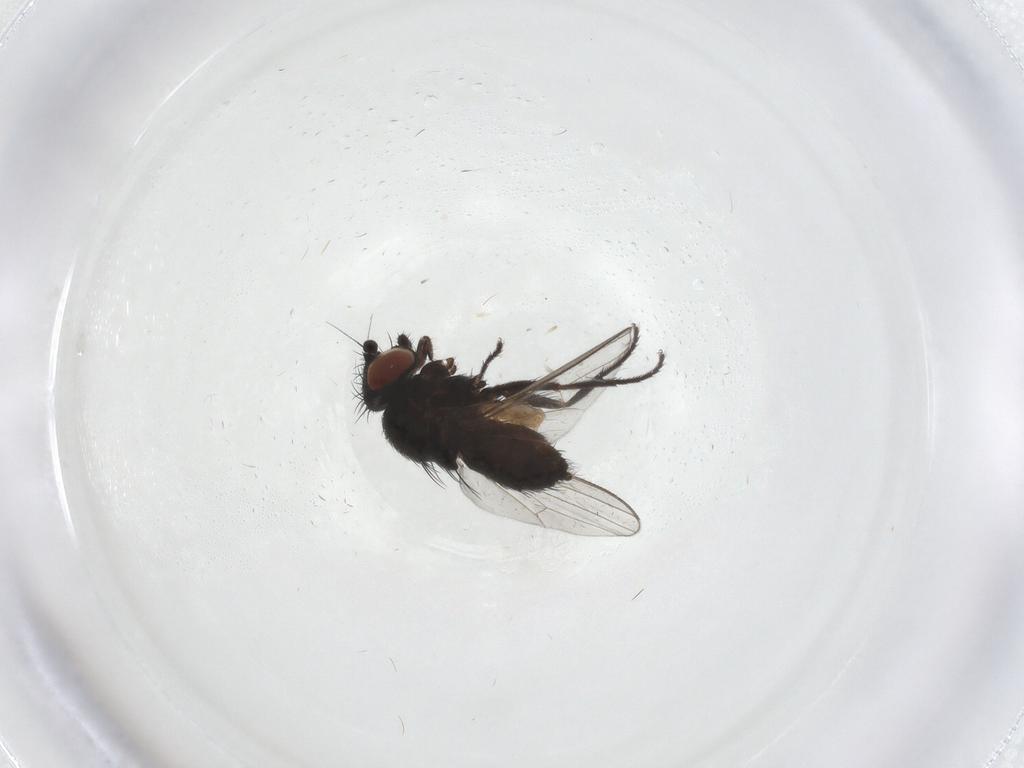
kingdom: Animalia
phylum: Arthropoda
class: Insecta
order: Diptera
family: Milichiidae
